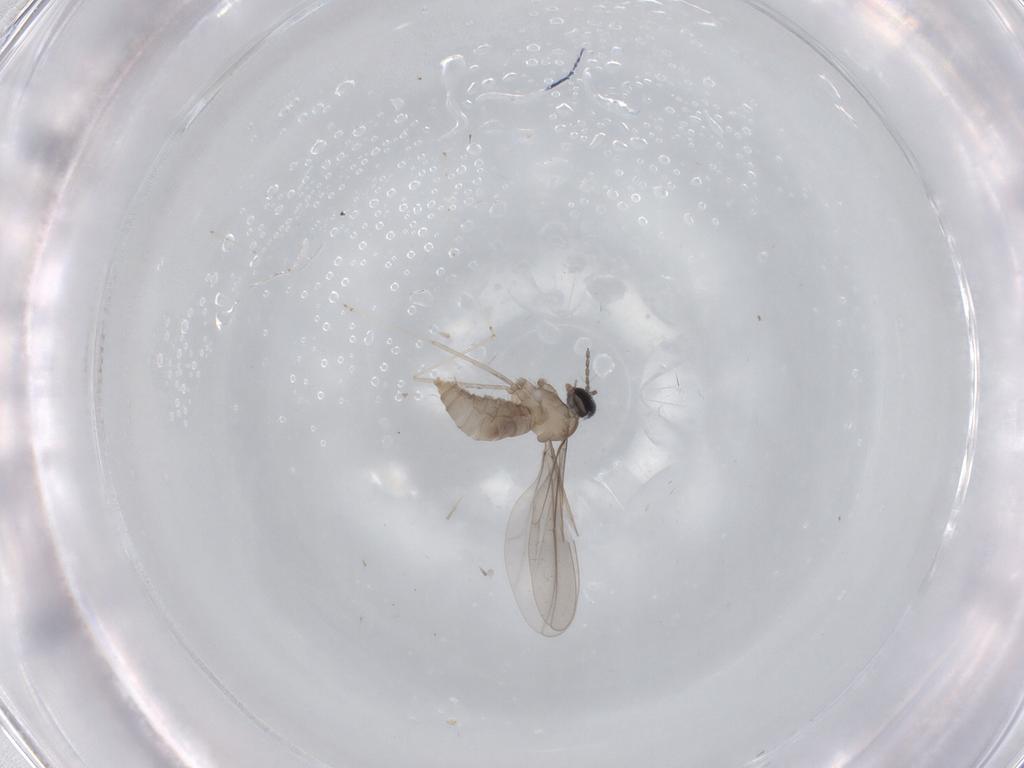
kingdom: Animalia
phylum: Arthropoda
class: Insecta
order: Diptera
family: Cecidomyiidae
